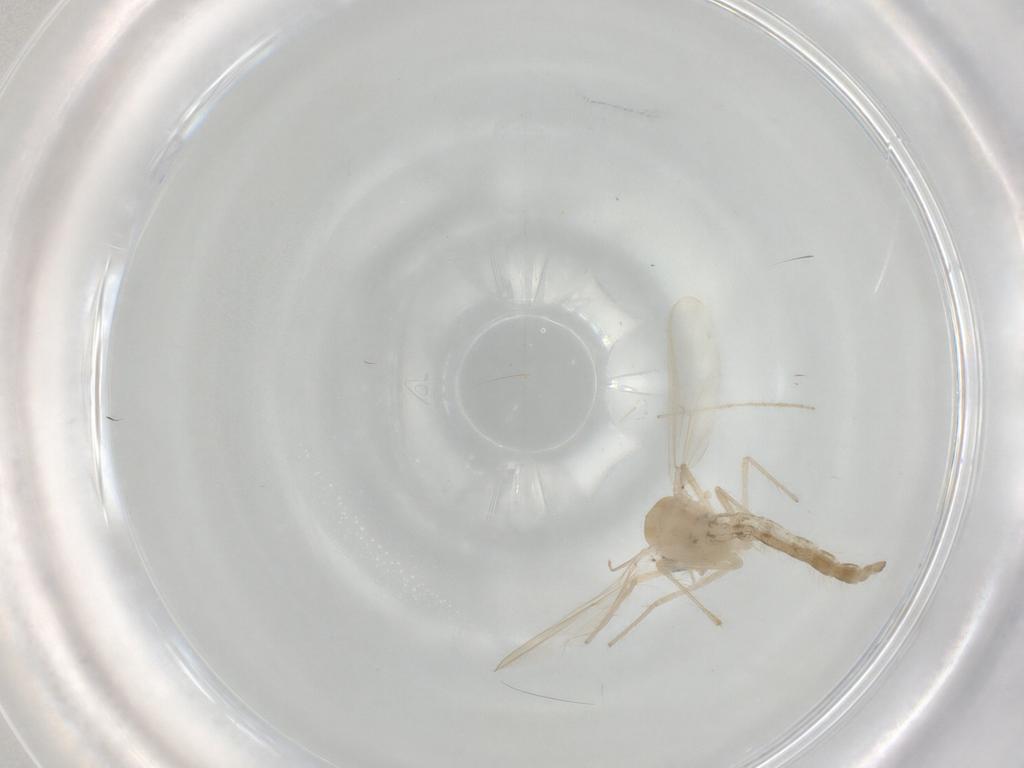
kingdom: Animalia
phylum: Arthropoda
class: Insecta
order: Diptera
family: Chironomidae
